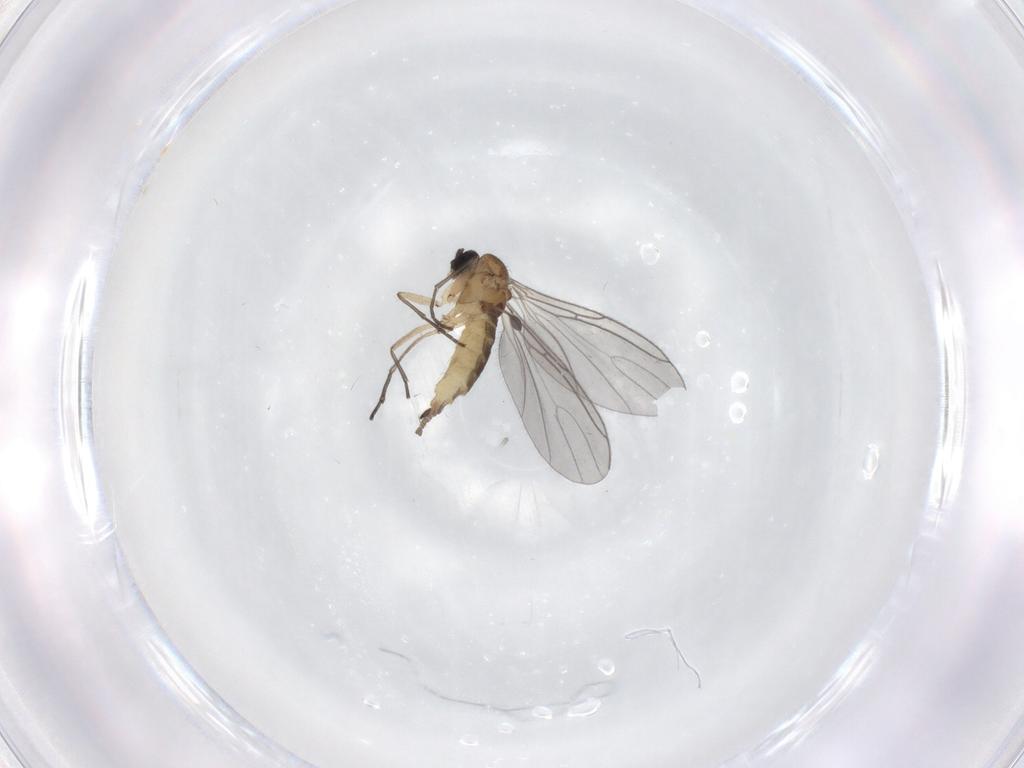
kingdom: Animalia
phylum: Arthropoda
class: Insecta
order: Diptera
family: Sciaridae
